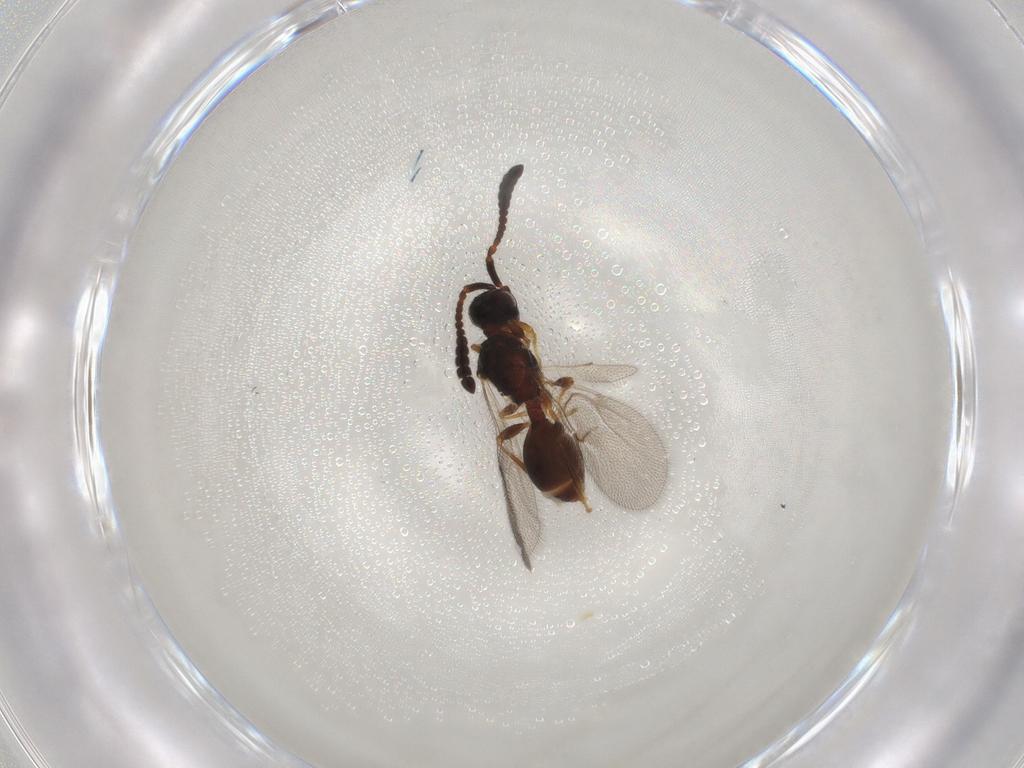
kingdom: Animalia
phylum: Arthropoda
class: Insecta
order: Hymenoptera
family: Diapriidae
